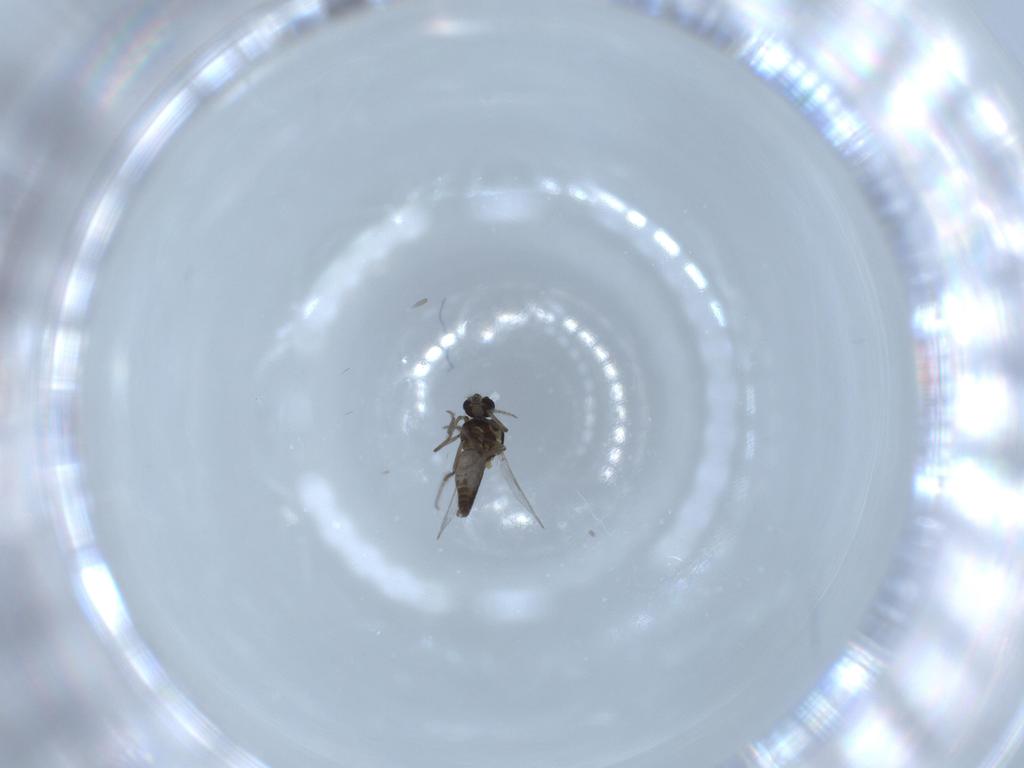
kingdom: Animalia
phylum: Arthropoda
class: Insecta
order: Diptera
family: Ceratopogonidae
